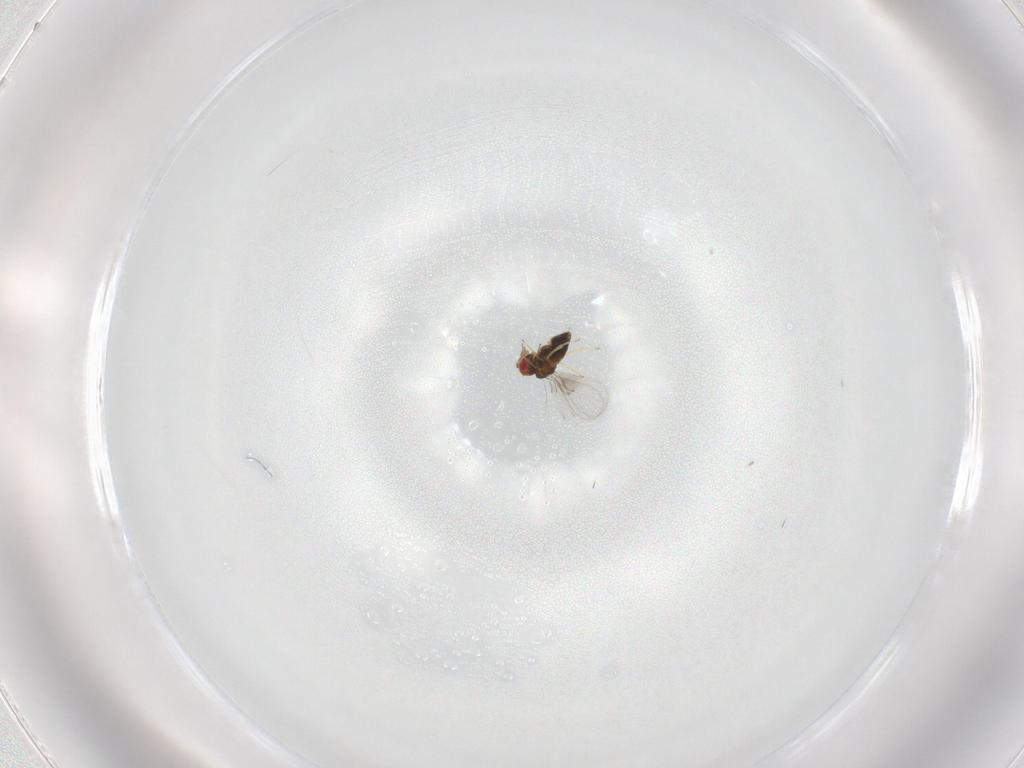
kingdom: Animalia
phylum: Arthropoda
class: Insecta
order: Hymenoptera
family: Trichogrammatidae
